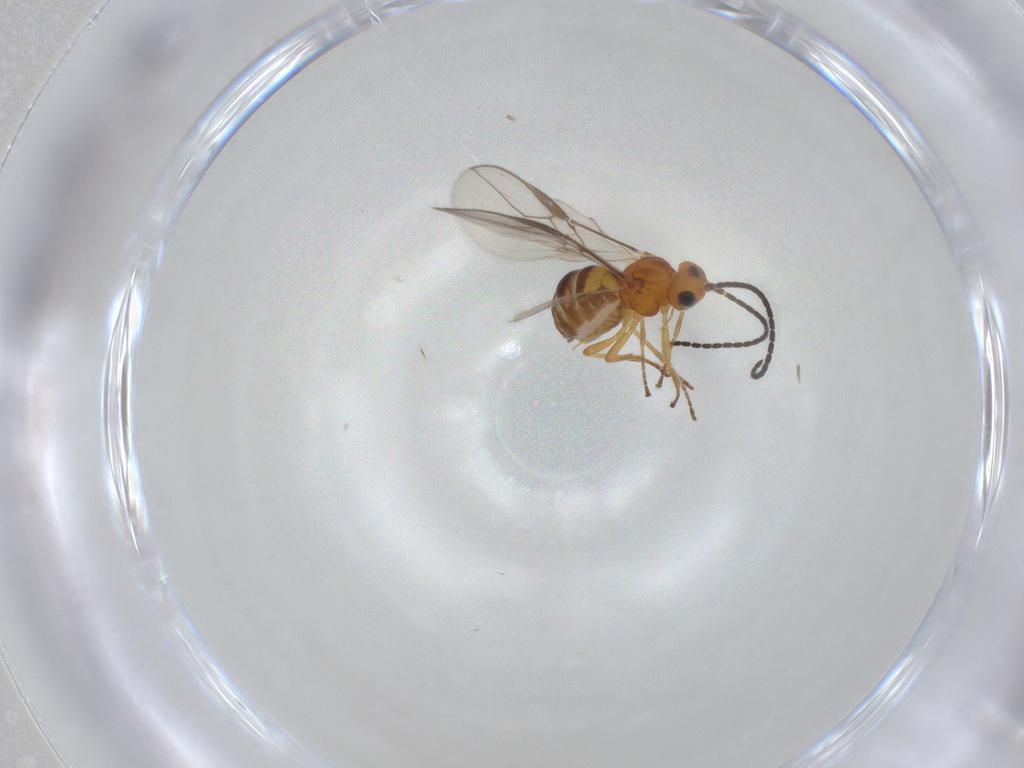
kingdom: Animalia
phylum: Arthropoda
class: Insecta
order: Hymenoptera
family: Braconidae
